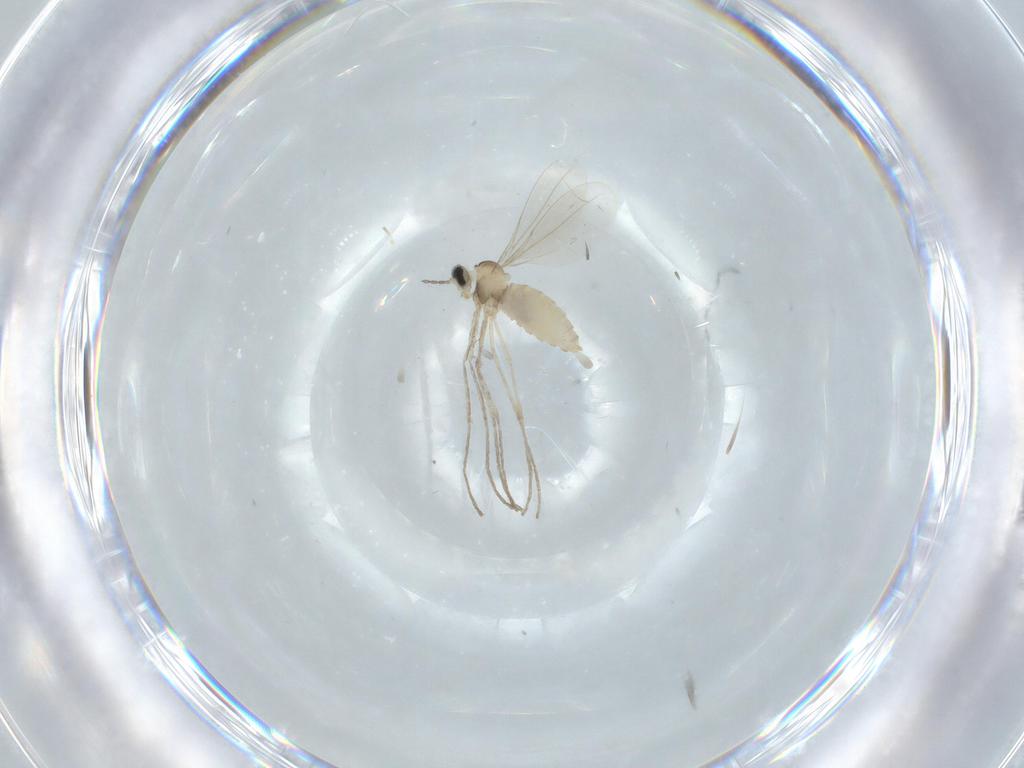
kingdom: Animalia
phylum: Arthropoda
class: Insecta
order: Diptera
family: Cecidomyiidae
